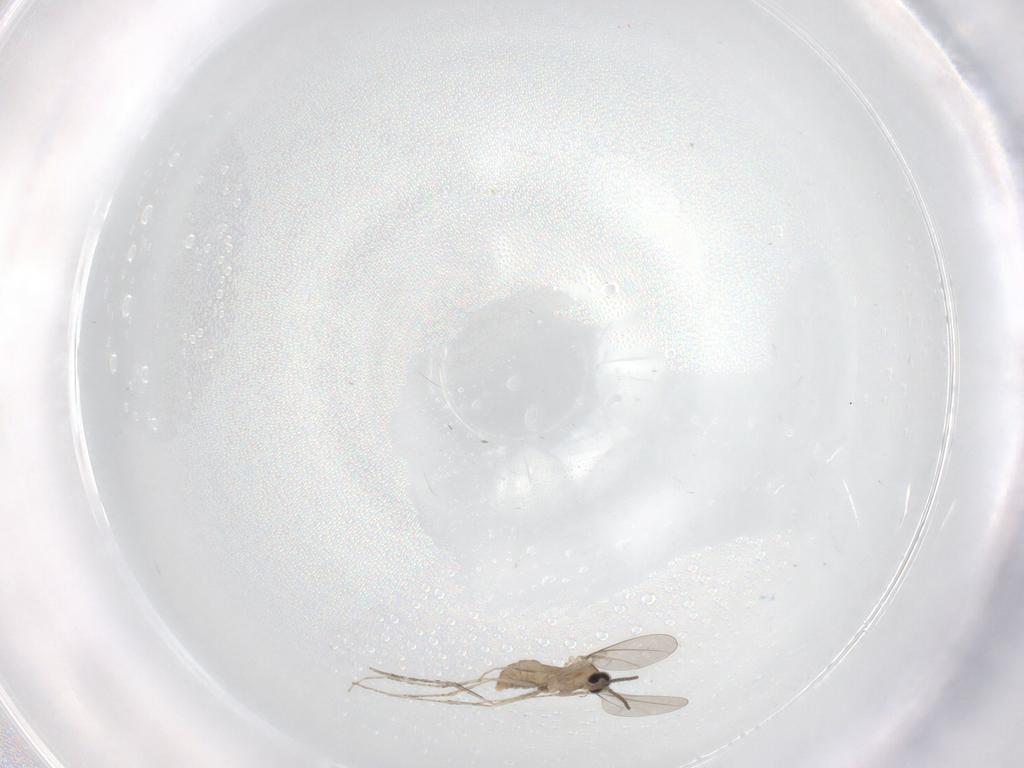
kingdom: Animalia
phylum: Arthropoda
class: Insecta
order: Diptera
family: Cecidomyiidae
